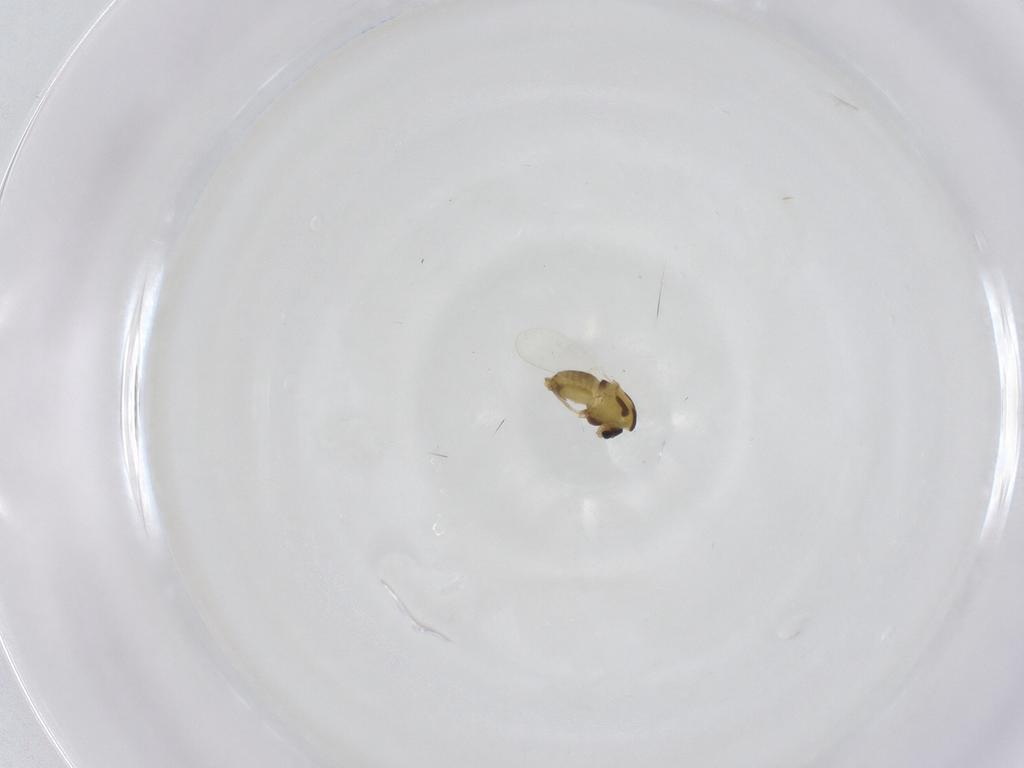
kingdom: Animalia
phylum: Arthropoda
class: Insecta
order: Diptera
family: Chironomidae
